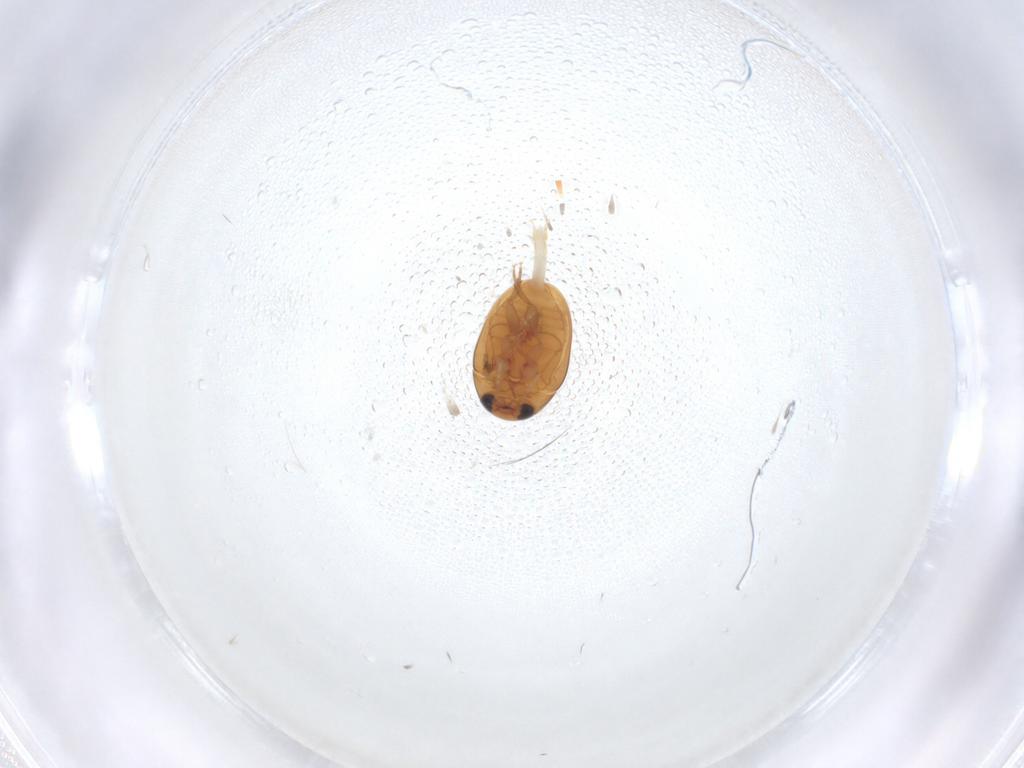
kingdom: Animalia
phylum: Arthropoda
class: Insecta
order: Coleoptera
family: Phalacridae
